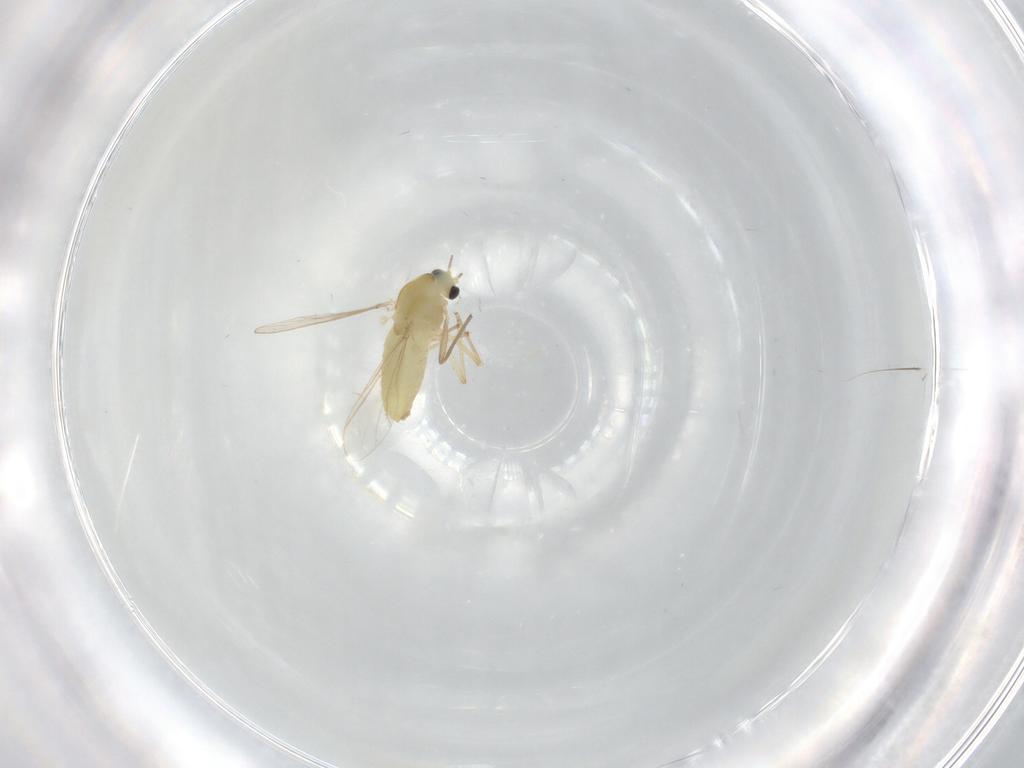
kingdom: Animalia
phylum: Arthropoda
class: Insecta
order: Diptera
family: Chironomidae
